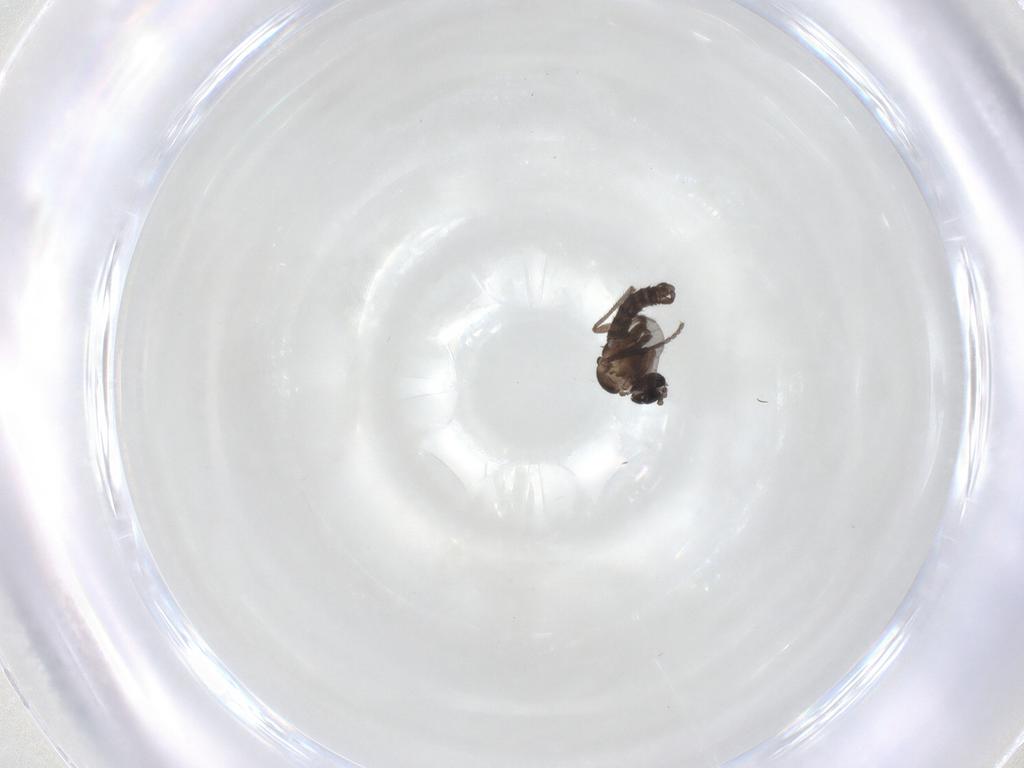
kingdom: Animalia
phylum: Arthropoda
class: Insecta
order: Diptera
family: Sciaridae
